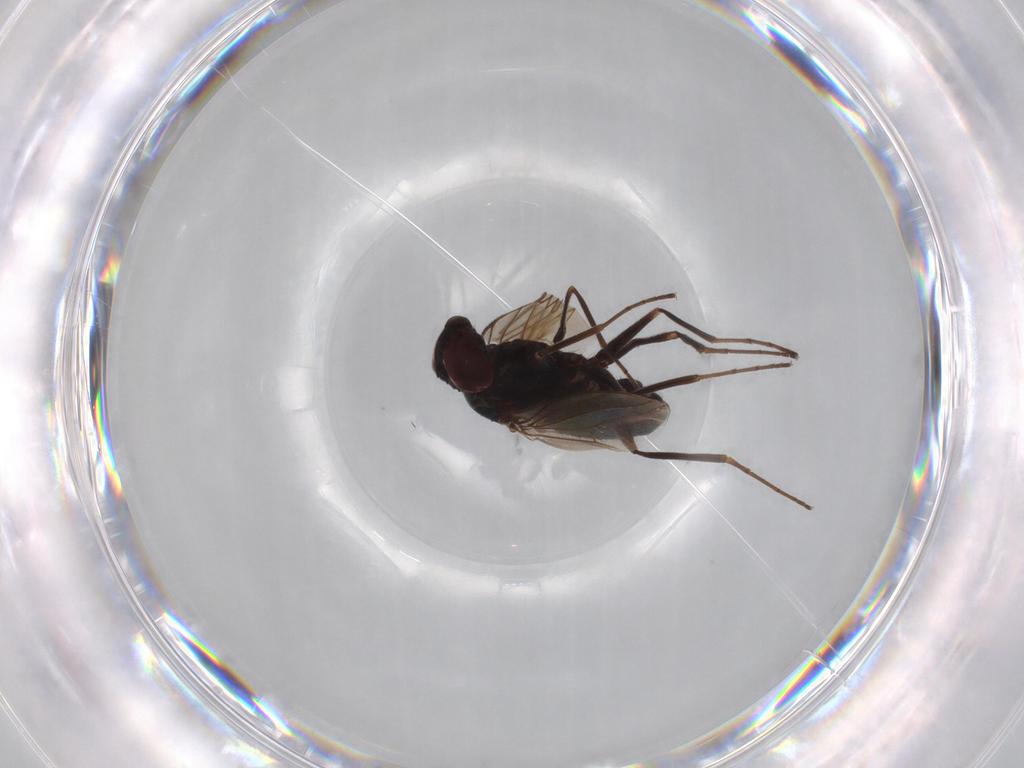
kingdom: Animalia
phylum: Arthropoda
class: Insecta
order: Diptera
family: Dolichopodidae
